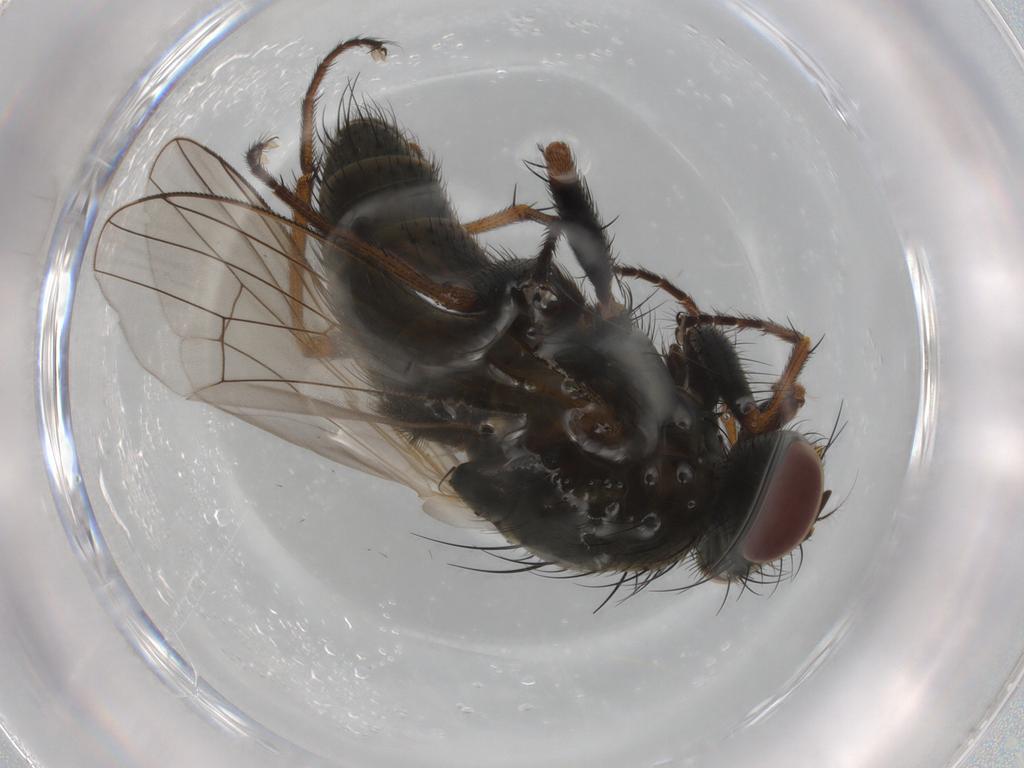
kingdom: Animalia
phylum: Arthropoda
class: Insecta
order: Diptera
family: Muscidae
